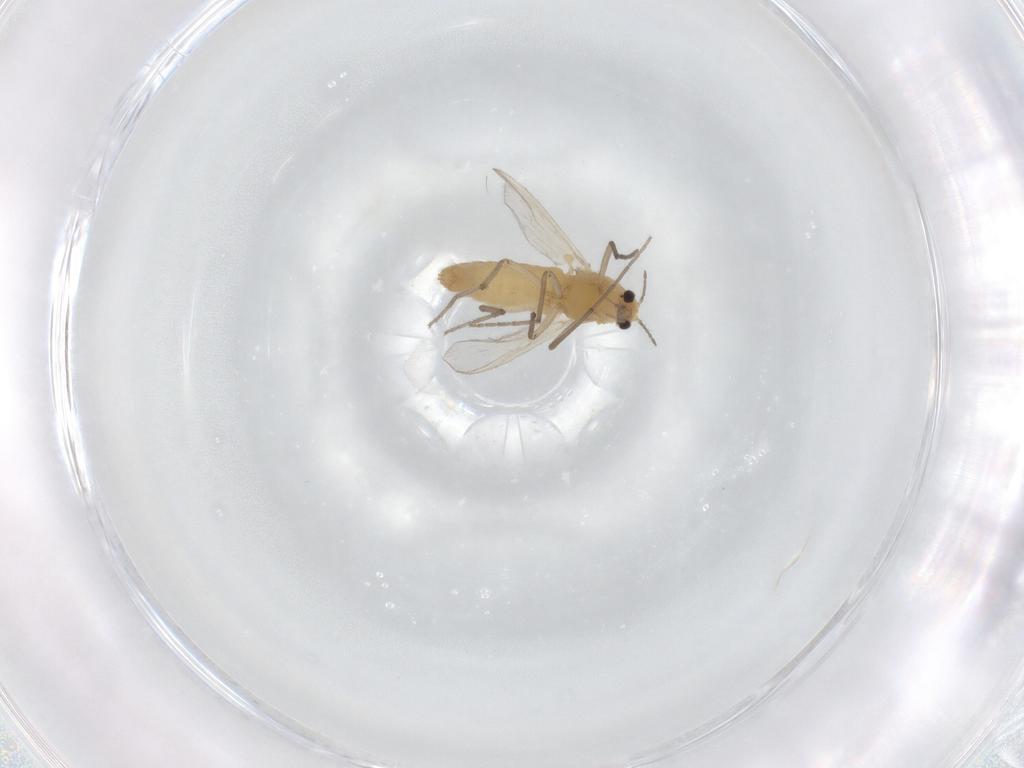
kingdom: Animalia
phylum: Arthropoda
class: Insecta
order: Diptera
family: Chironomidae
